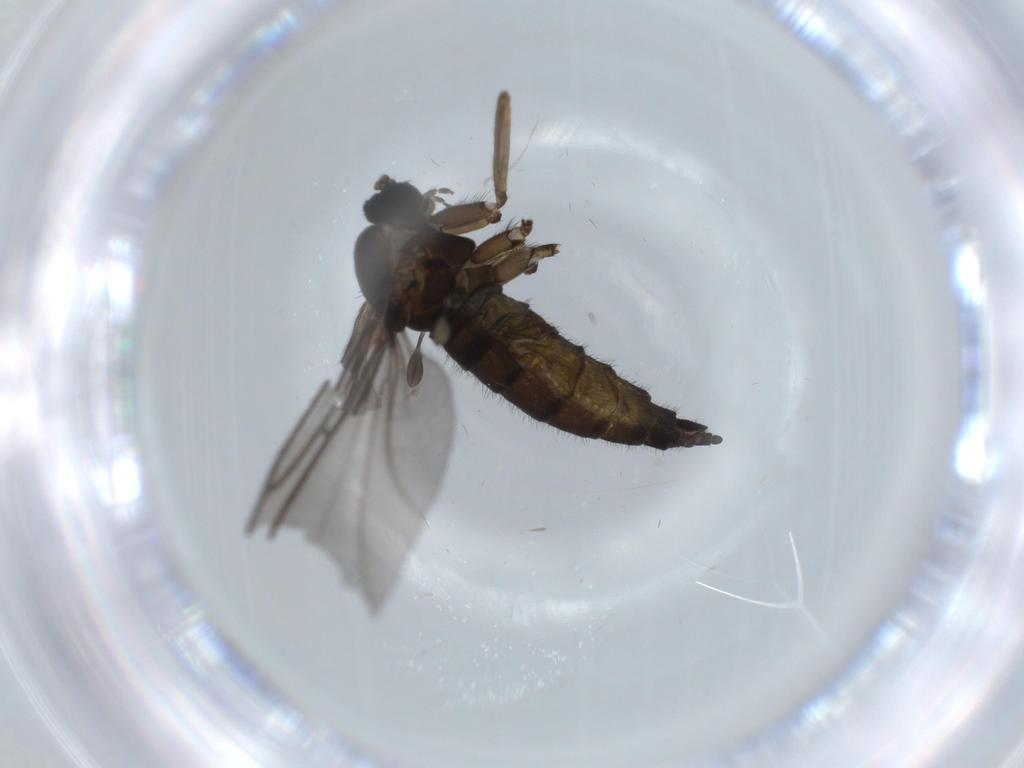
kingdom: Animalia
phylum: Arthropoda
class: Insecta
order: Diptera
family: Sciaridae
